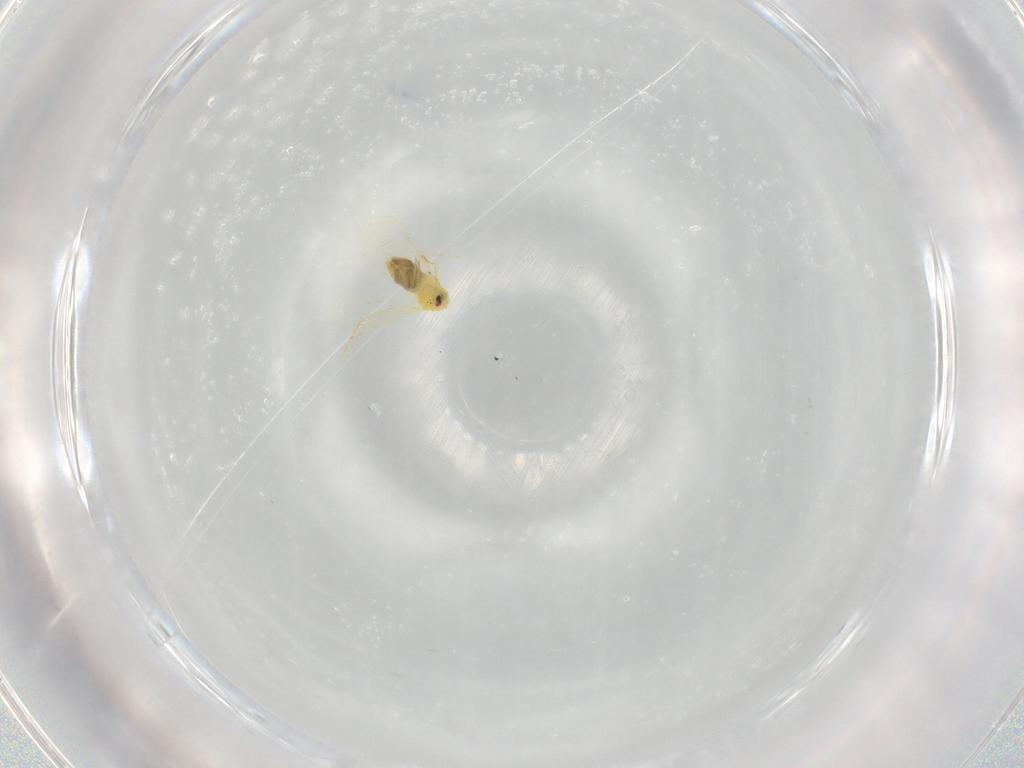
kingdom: Animalia
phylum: Arthropoda
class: Insecta
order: Hemiptera
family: Aleyrodidae
